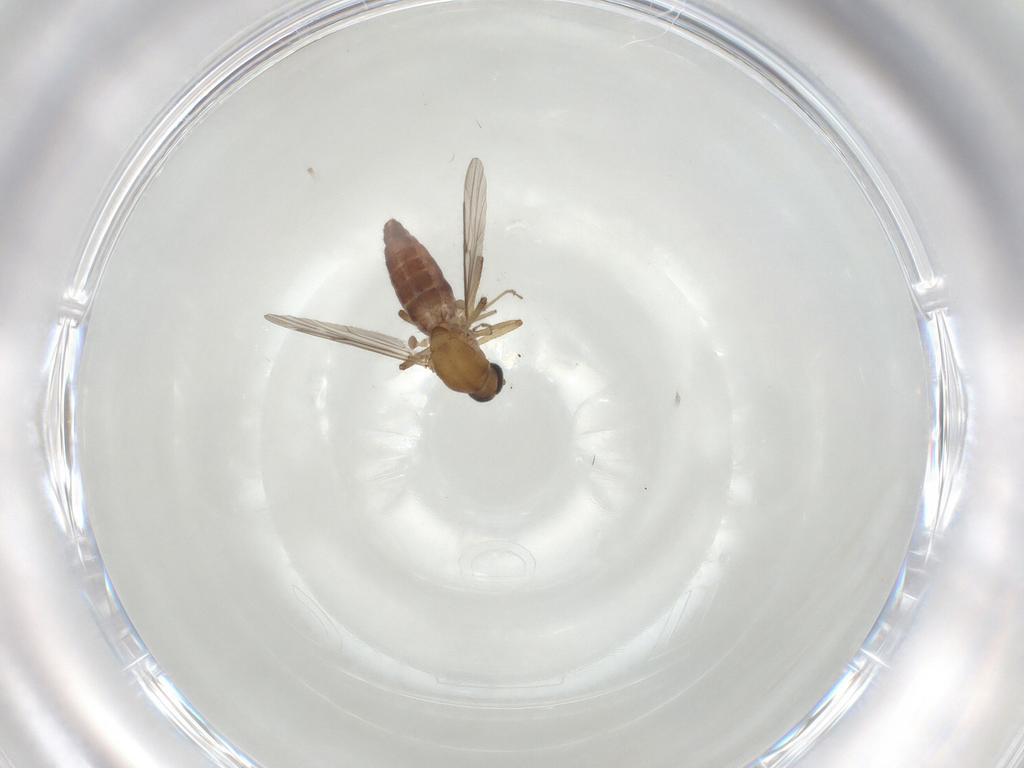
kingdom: Animalia
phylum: Arthropoda
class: Insecta
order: Diptera
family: Ceratopogonidae
